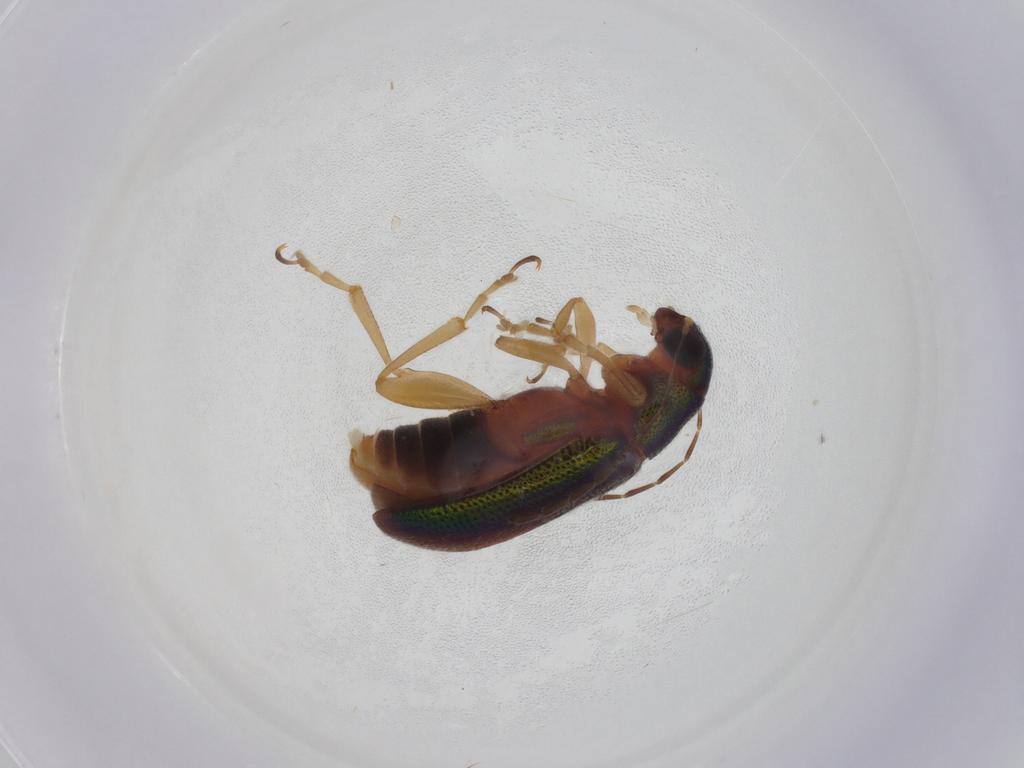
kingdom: Animalia
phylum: Arthropoda
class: Insecta
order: Coleoptera
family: Chrysomelidae
